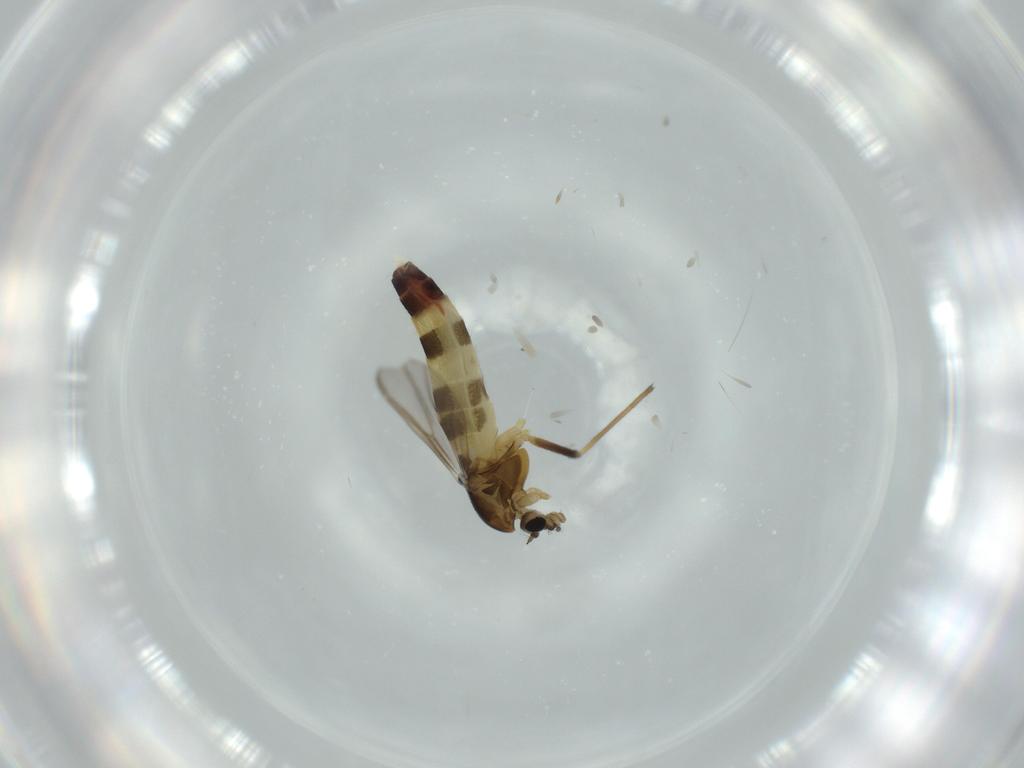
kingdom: Animalia
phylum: Arthropoda
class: Insecta
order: Diptera
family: Chironomidae
